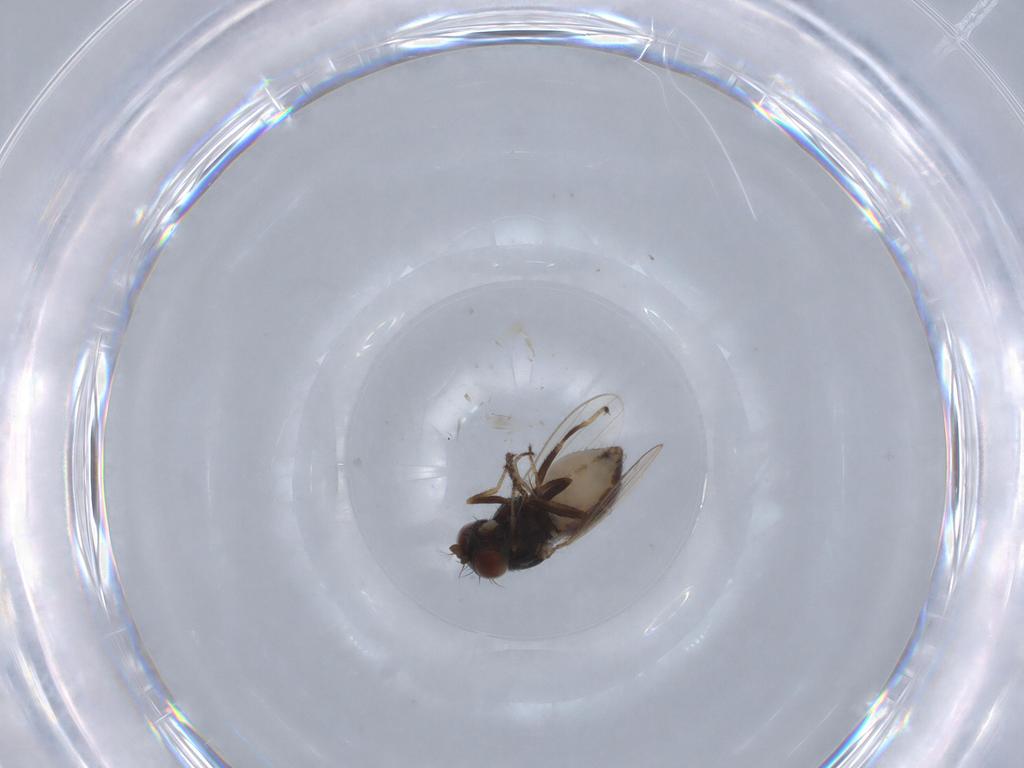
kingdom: Animalia
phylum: Arthropoda
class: Insecta
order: Diptera
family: Ephydridae
